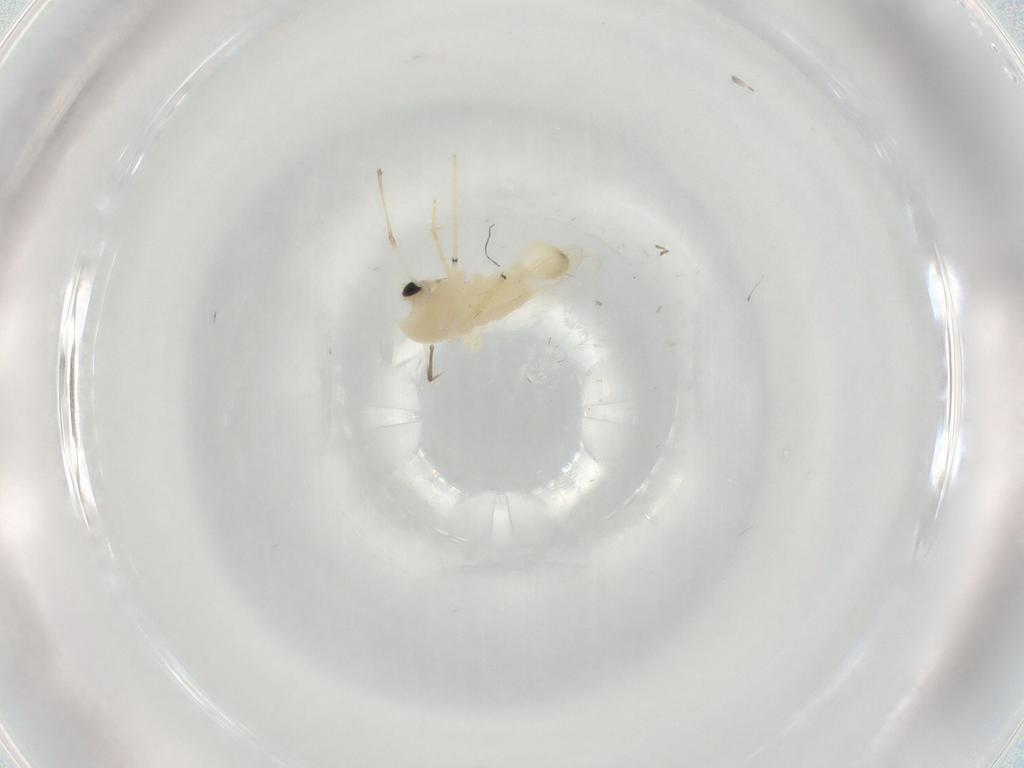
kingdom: Animalia
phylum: Arthropoda
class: Insecta
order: Diptera
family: Chironomidae
